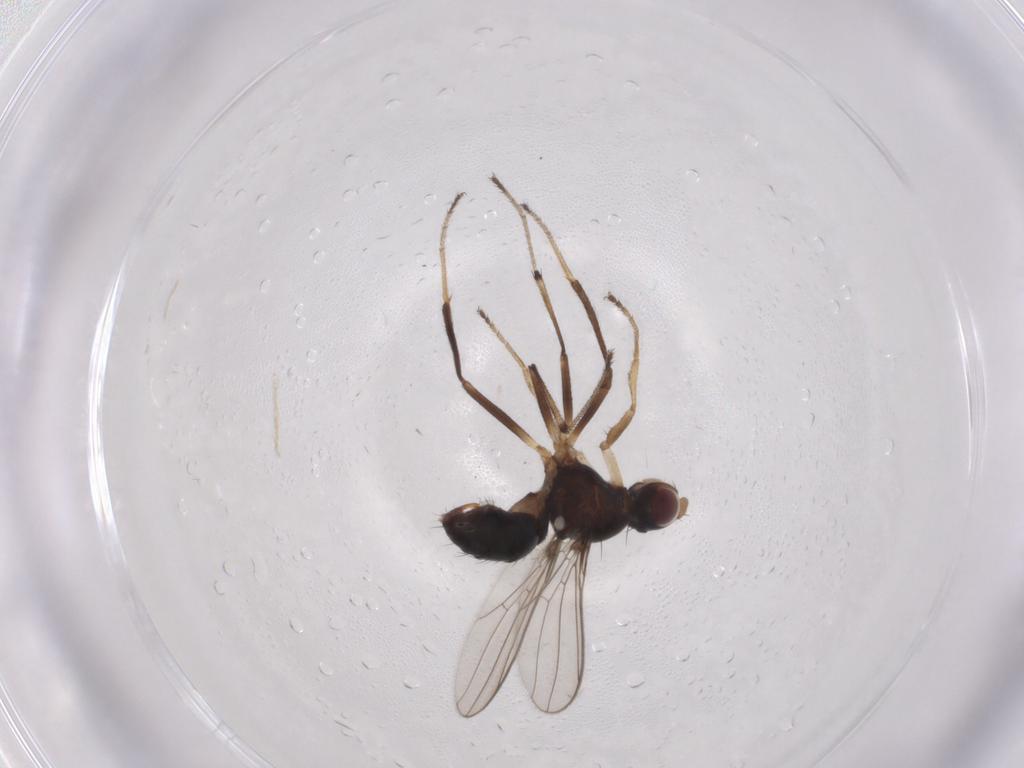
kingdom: Animalia
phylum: Arthropoda
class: Insecta
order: Diptera
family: Sepsidae
